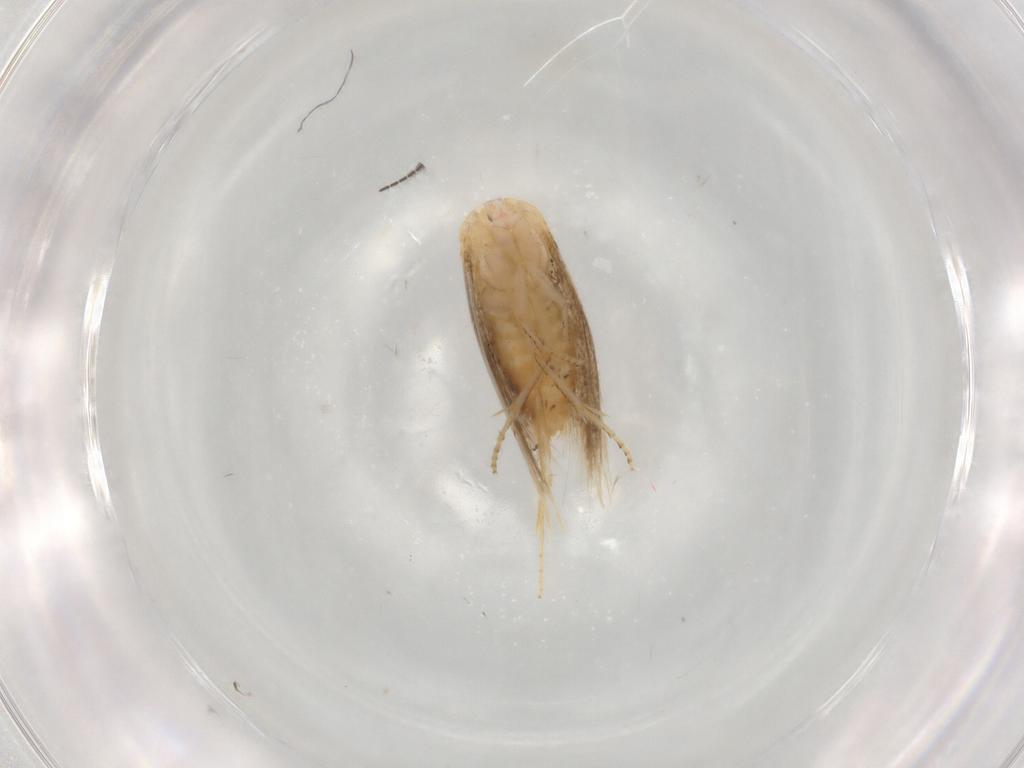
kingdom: Animalia
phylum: Arthropoda
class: Insecta
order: Lepidoptera
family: Bucculatricidae
